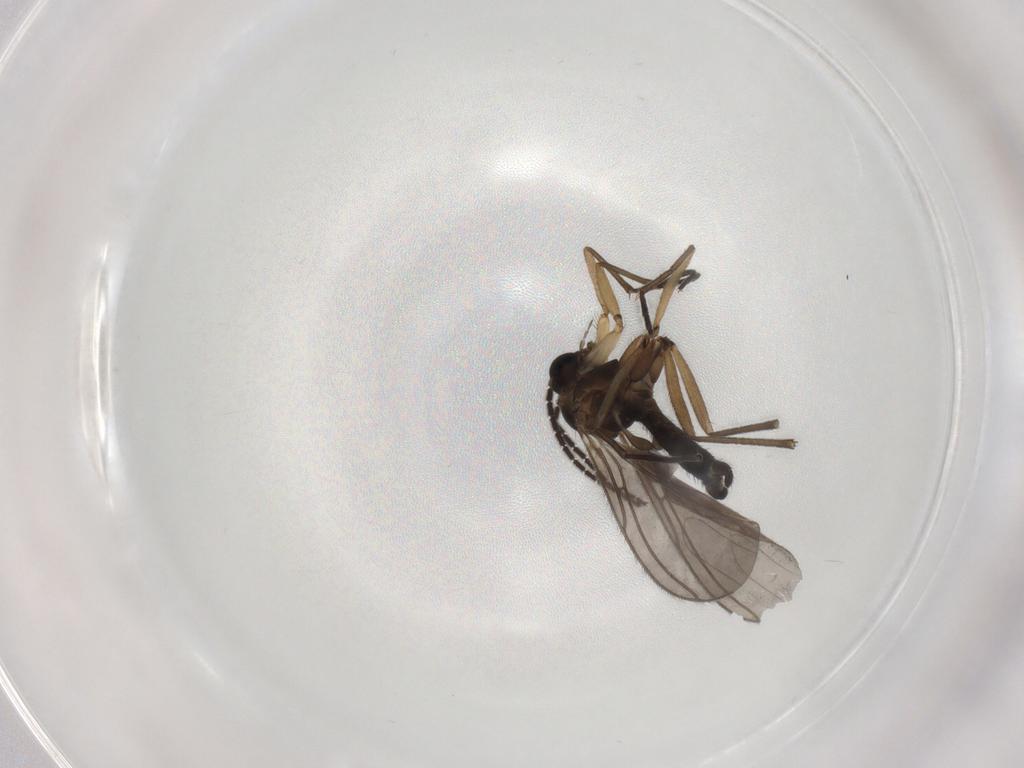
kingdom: Animalia
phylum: Arthropoda
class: Insecta
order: Diptera
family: Sciaridae
